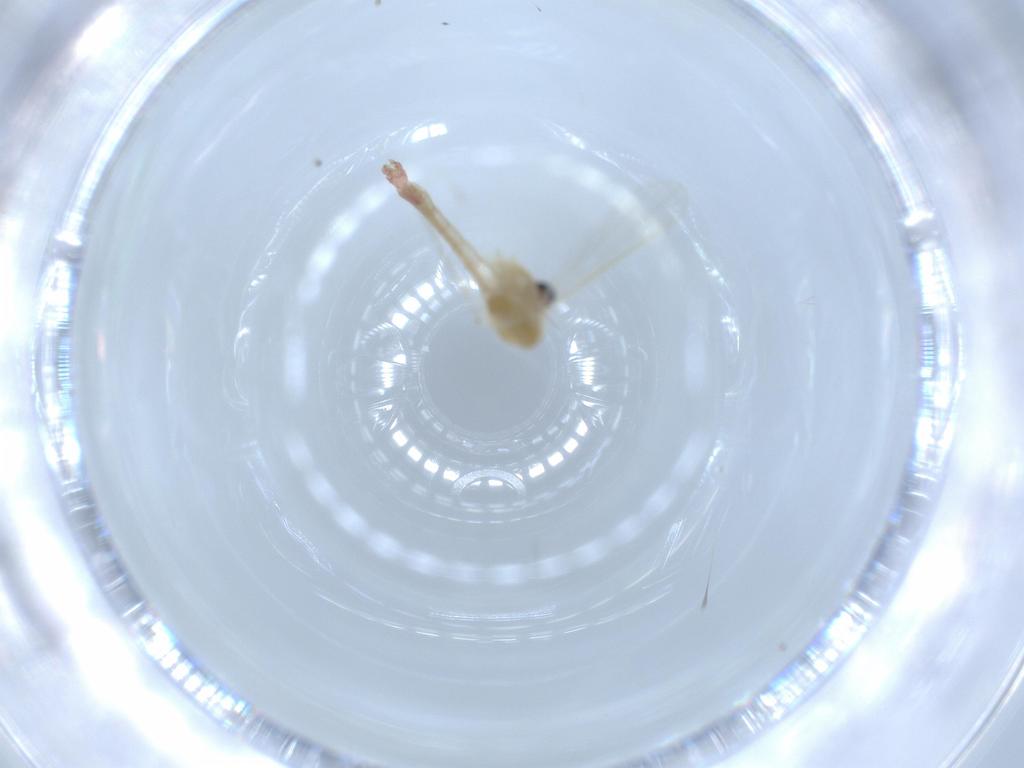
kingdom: Animalia
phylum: Arthropoda
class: Insecta
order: Diptera
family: Chironomidae
